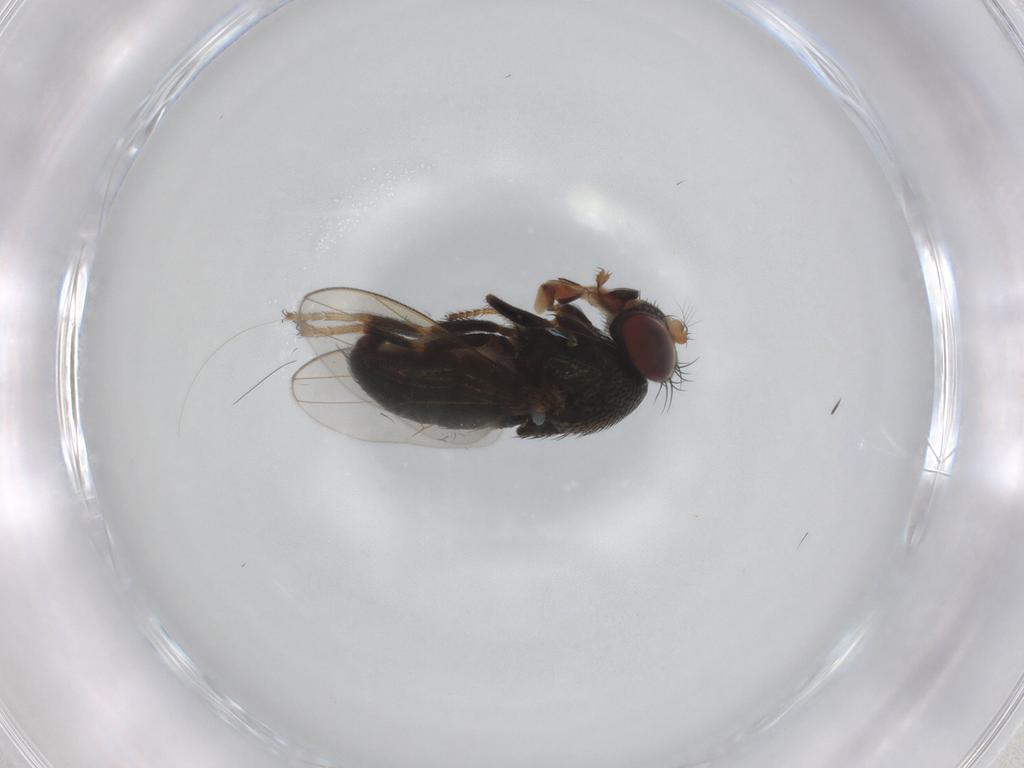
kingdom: Animalia
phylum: Arthropoda
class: Insecta
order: Diptera
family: Ephydridae
